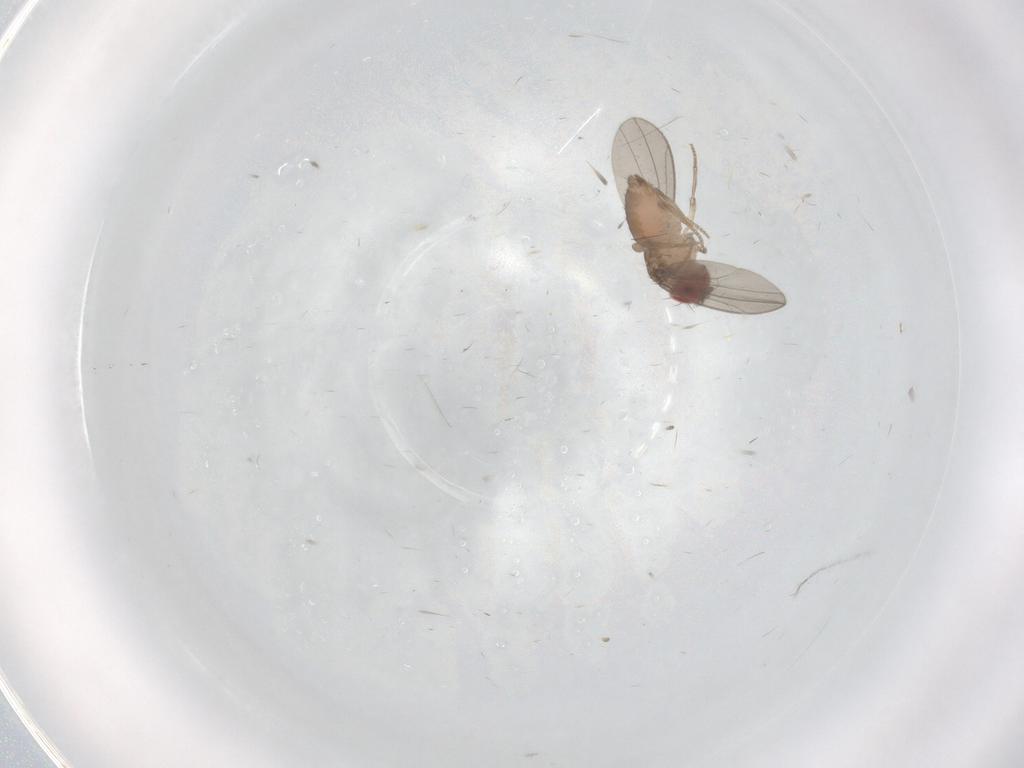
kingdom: Animalia
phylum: Arthropoda
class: Insecta
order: Diptera
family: Drosophilidae
